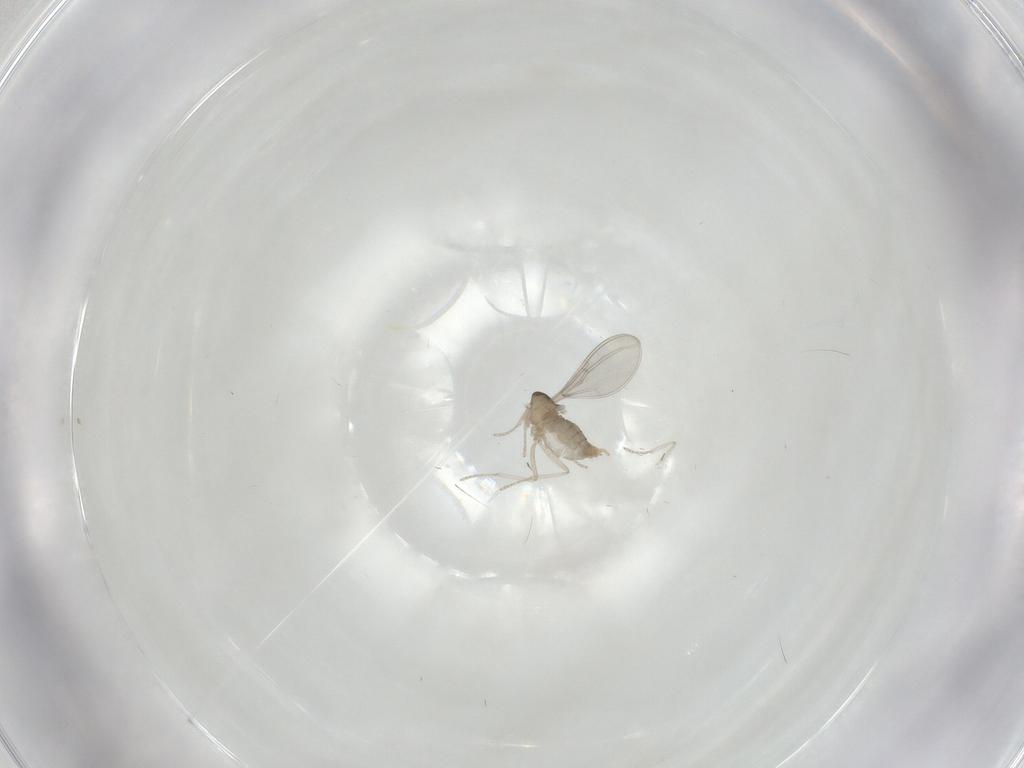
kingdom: Animalia
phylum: Arthropoda
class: Insecta
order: Diptera
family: Cecidomyiidae
